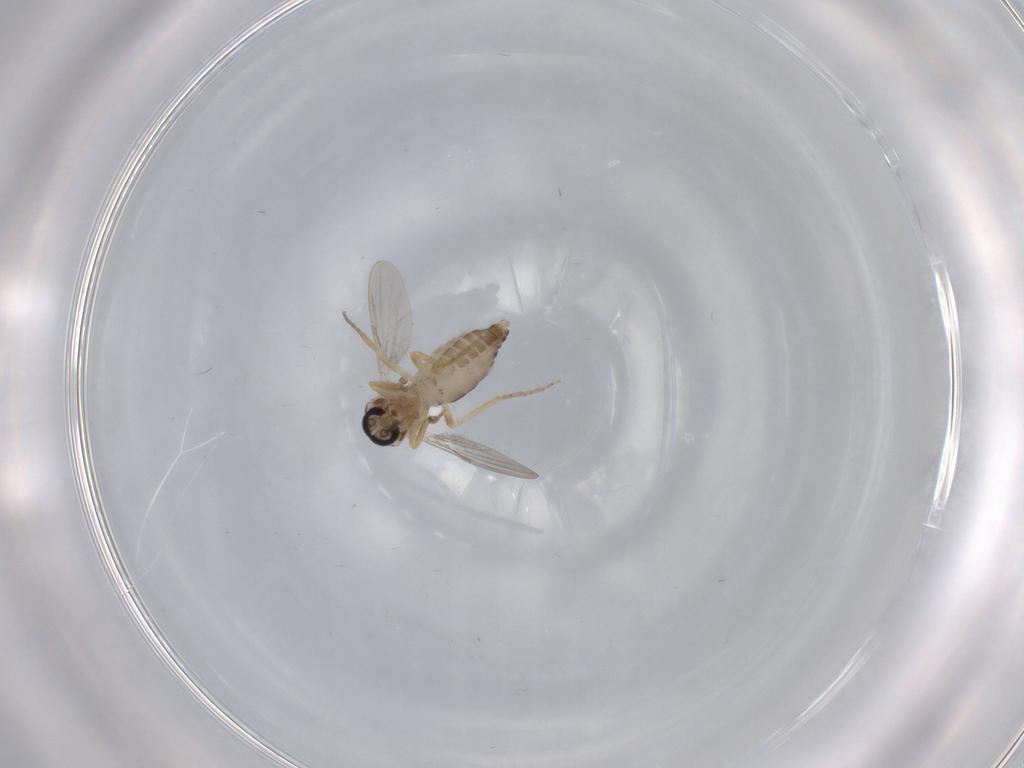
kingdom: Animalia
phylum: Arthropoda
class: Insecta
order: Diptera
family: Ceratopogonidae
